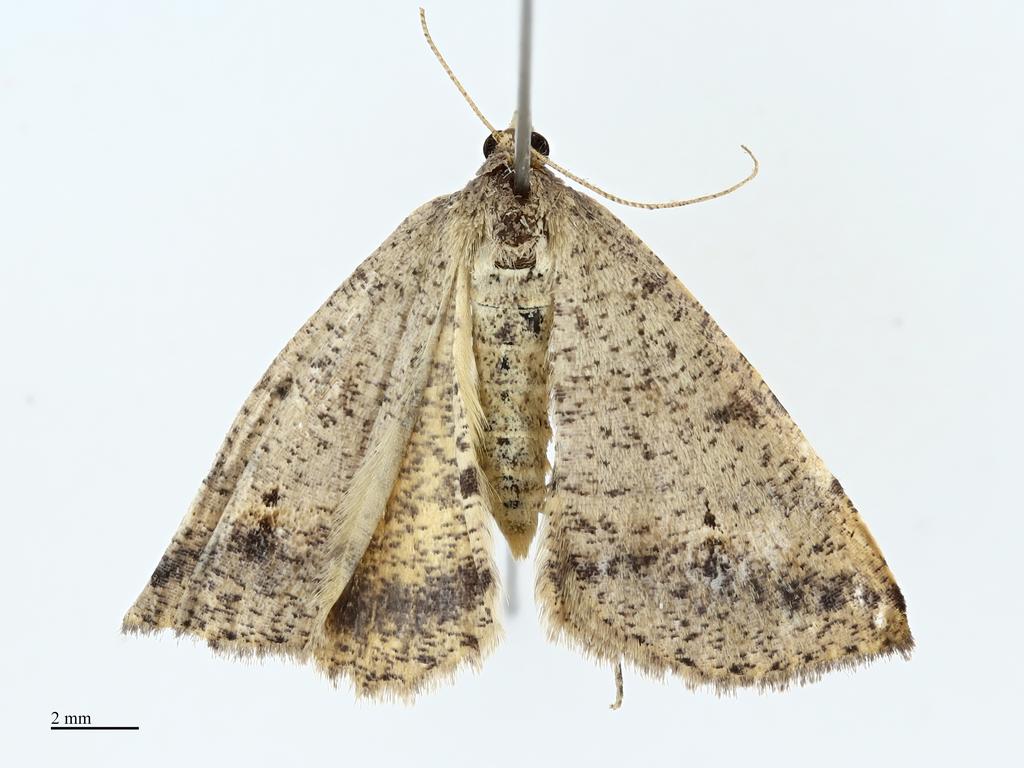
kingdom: Animalia
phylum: Arthropoda
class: Insecta
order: Lepidoptera
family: Geometridae
